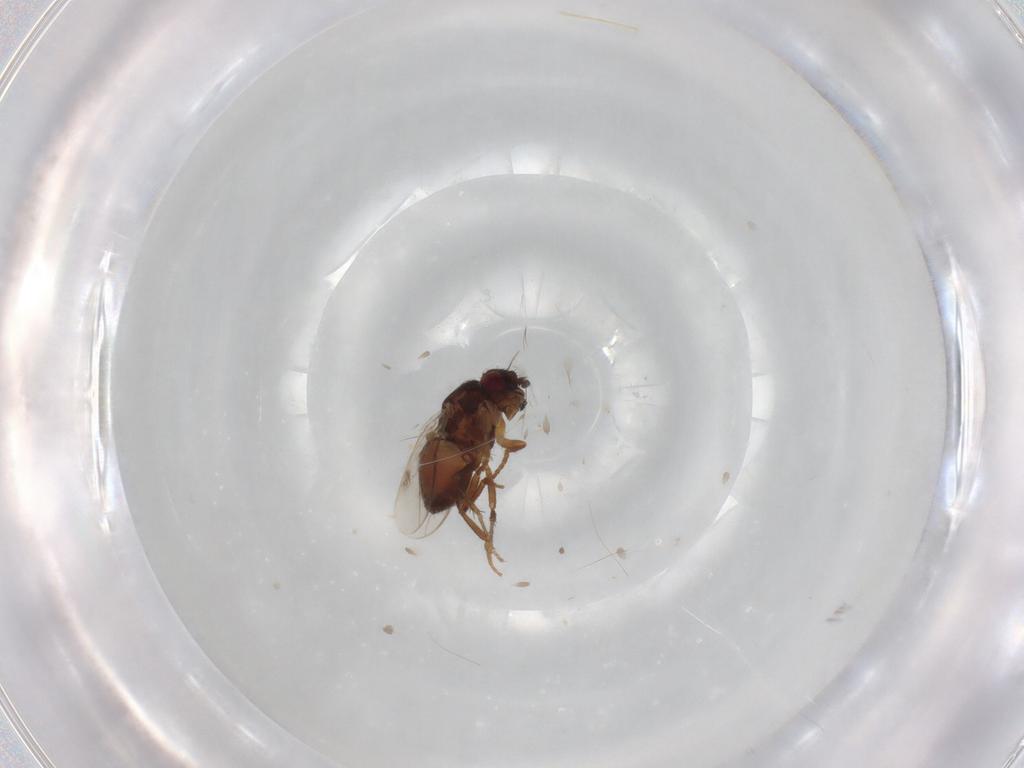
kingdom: Animalia
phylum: Arthropoda
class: Insecta
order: Diptera
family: Sphaeroceridae
